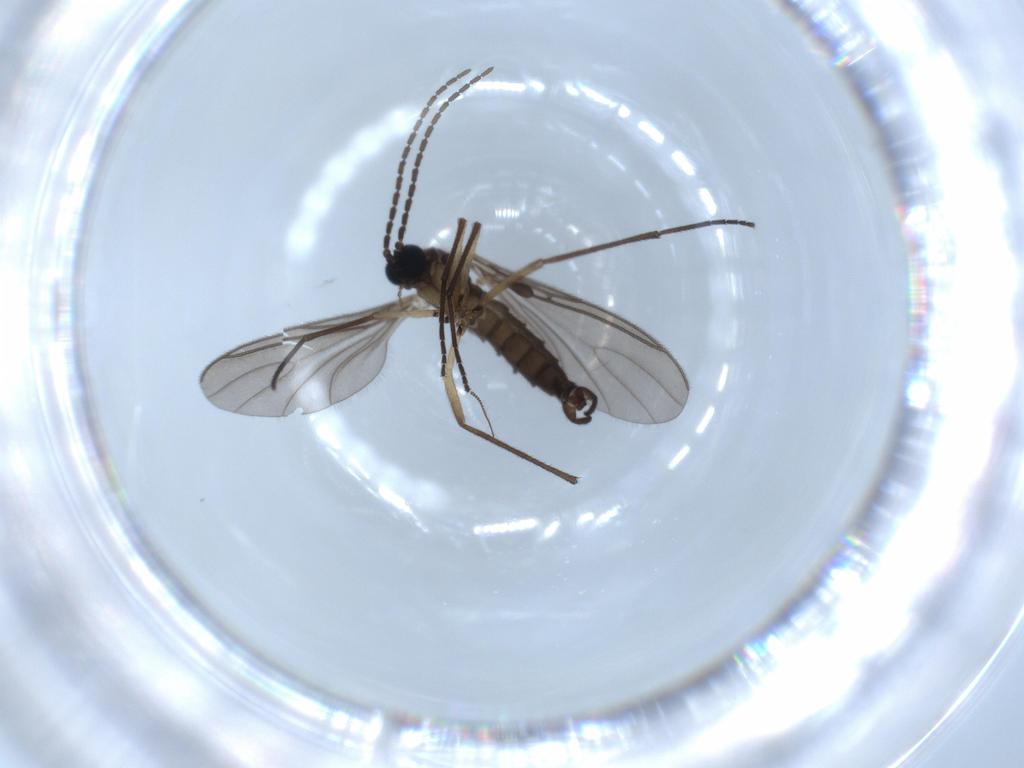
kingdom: Animalia
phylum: Arthropoda
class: Insecta
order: Diptera
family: Sciaridae
